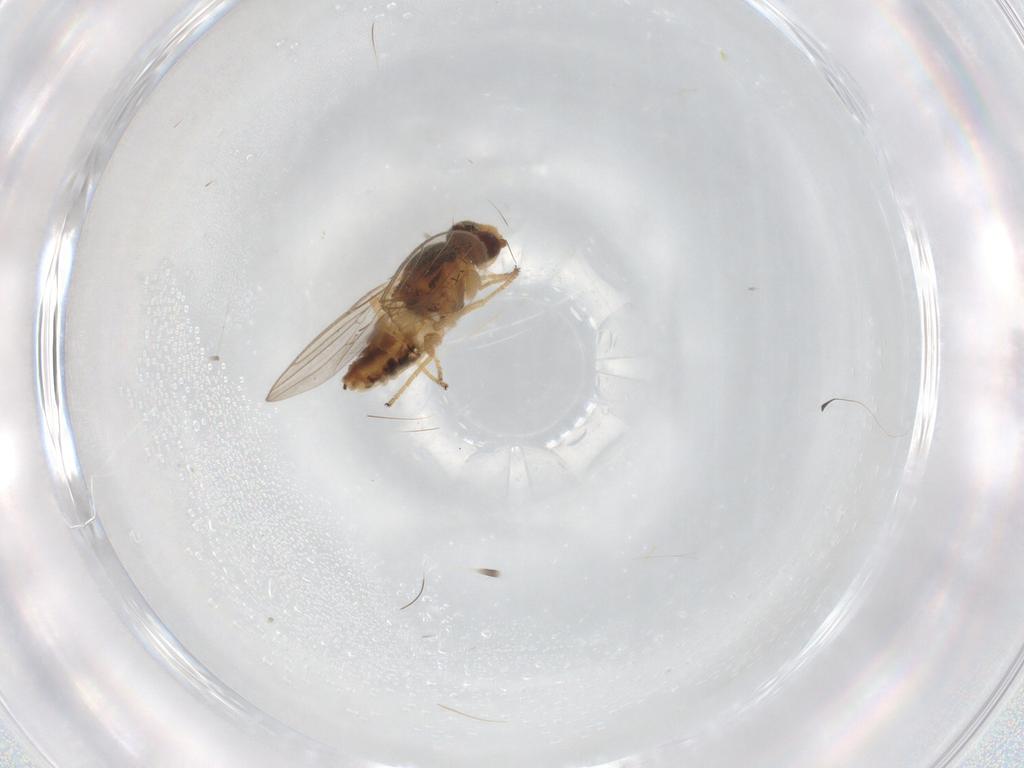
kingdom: Animalia
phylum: Arthropoda
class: Insecta
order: Diptera
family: Chloropidae
